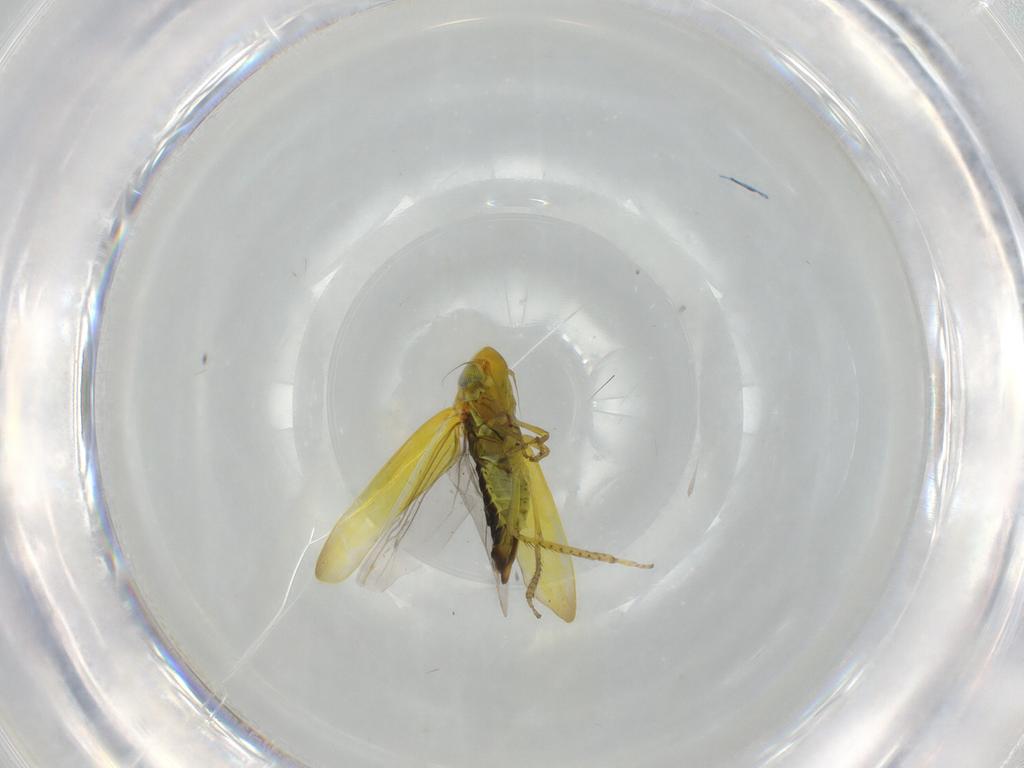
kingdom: Animalia
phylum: Arthropoda
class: Insecta
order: Hemiptera
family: Cicadellidae
